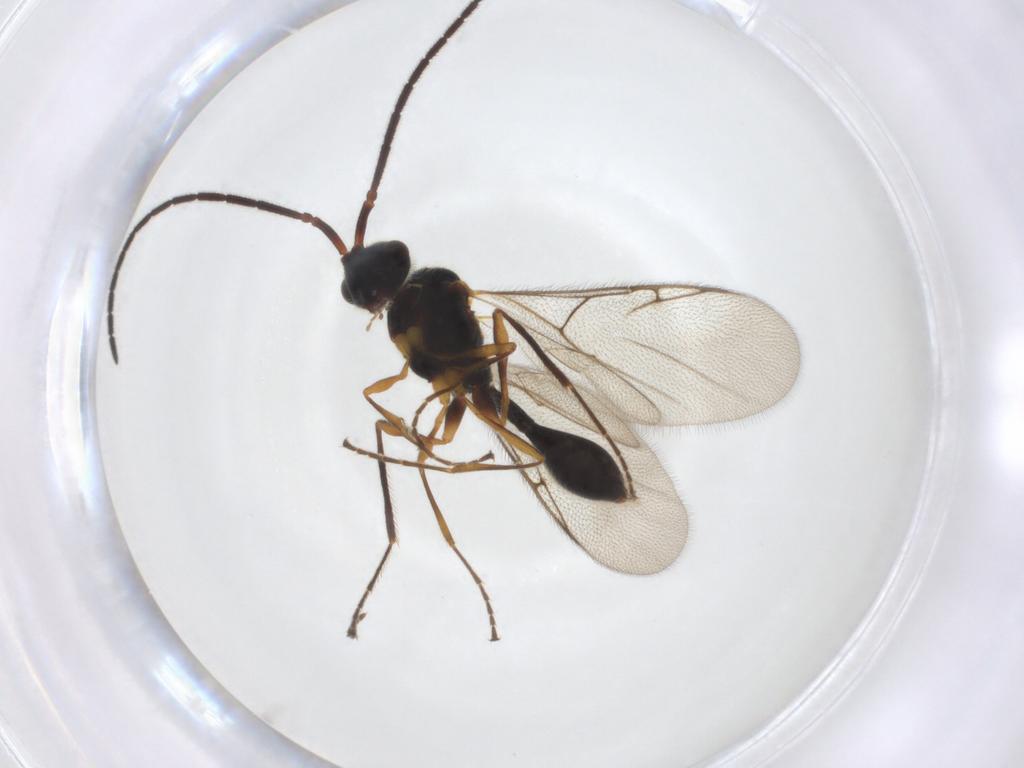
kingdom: Animalia
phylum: Arthropoda
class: Insecta
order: Hymenoptera
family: Diapriidae
